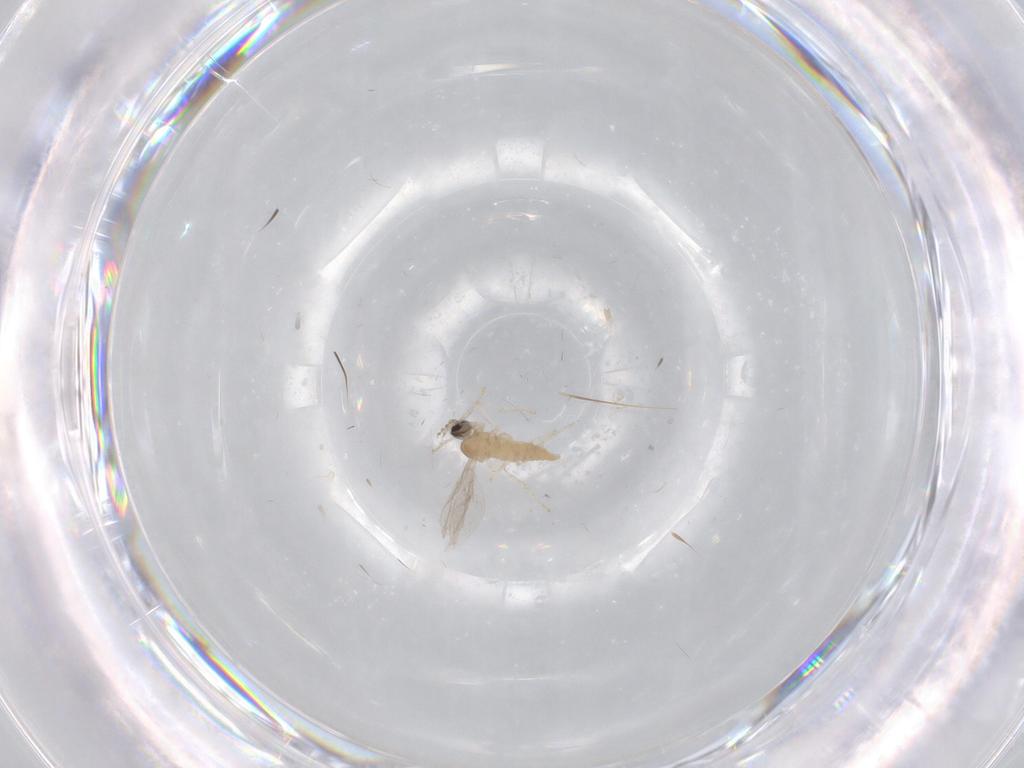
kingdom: Animalia
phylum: Arthropoda
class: Insecta
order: Diptera
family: Cecidomyiidae
